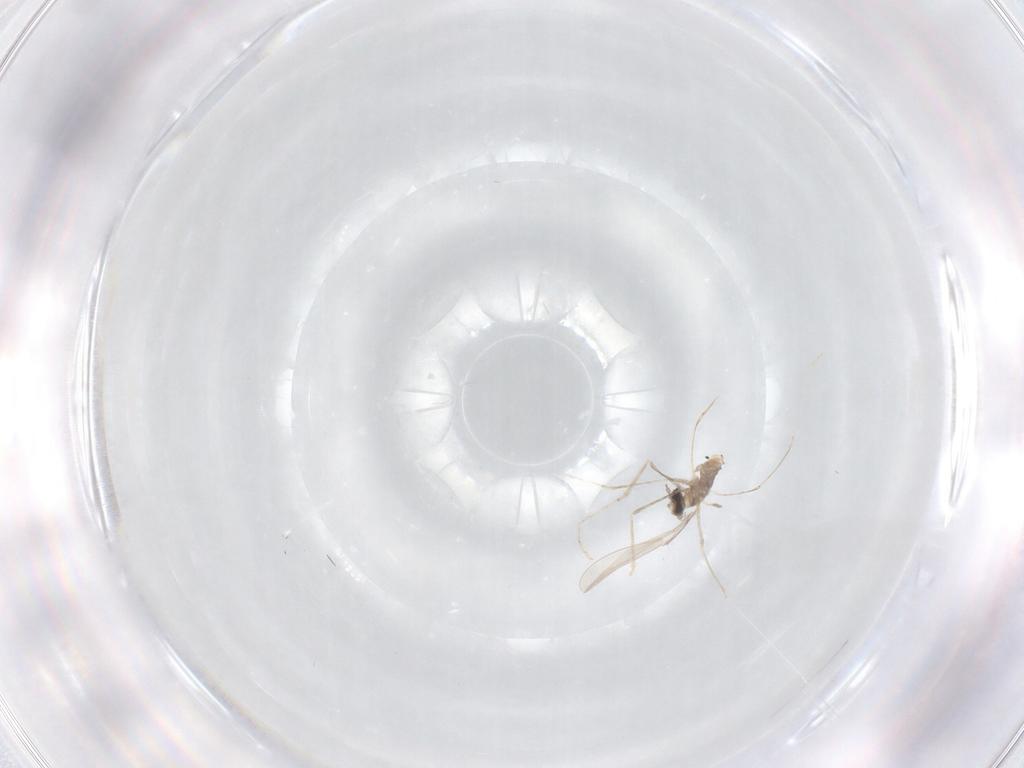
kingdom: Animalia
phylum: Arthropoda
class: Insecta
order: Diptera
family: Cecidomyiidae
